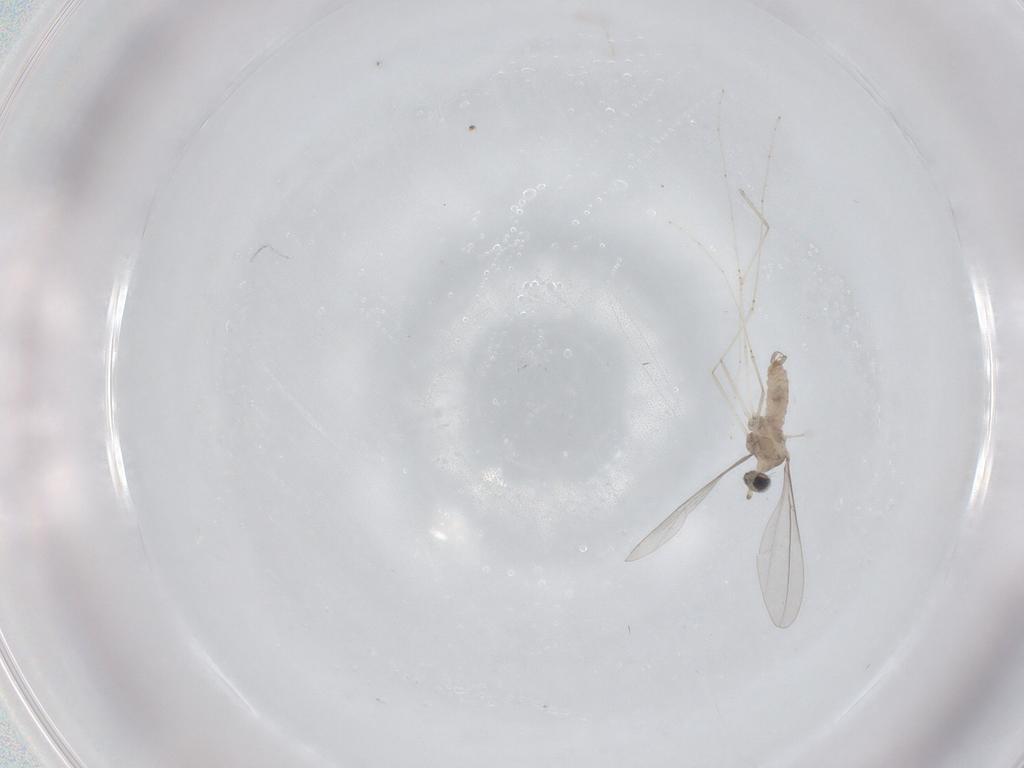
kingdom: Animalia
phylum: Arthropoda
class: Insecta
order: Diptera
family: Cecidomyiidae
